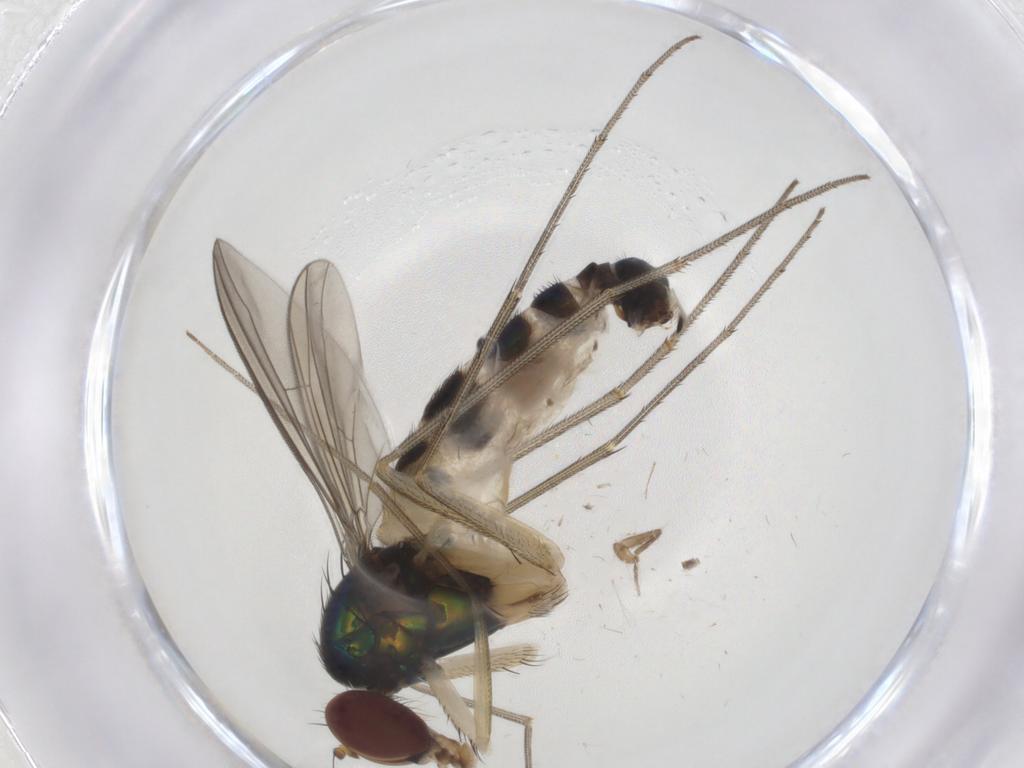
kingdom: Animalia
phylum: Arthropoda
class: Insecta
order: Diptera
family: Dolichopodidae
